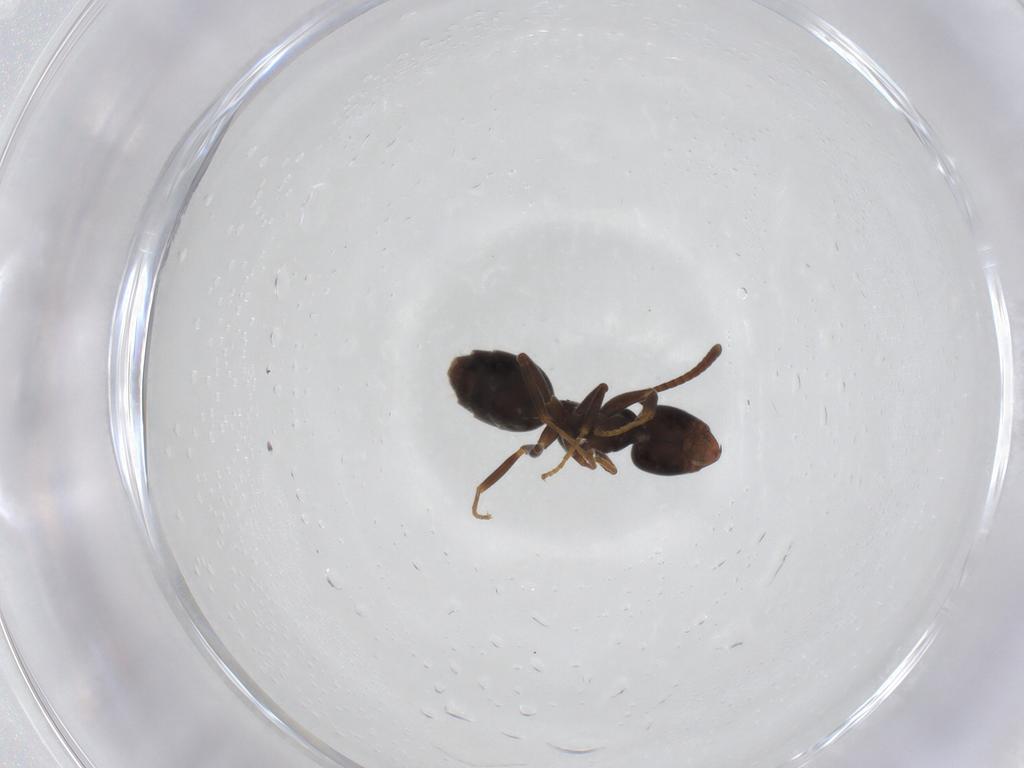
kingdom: Animalia
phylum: Arthropoda
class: Insecta
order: Hymenoptera
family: Formicidae
